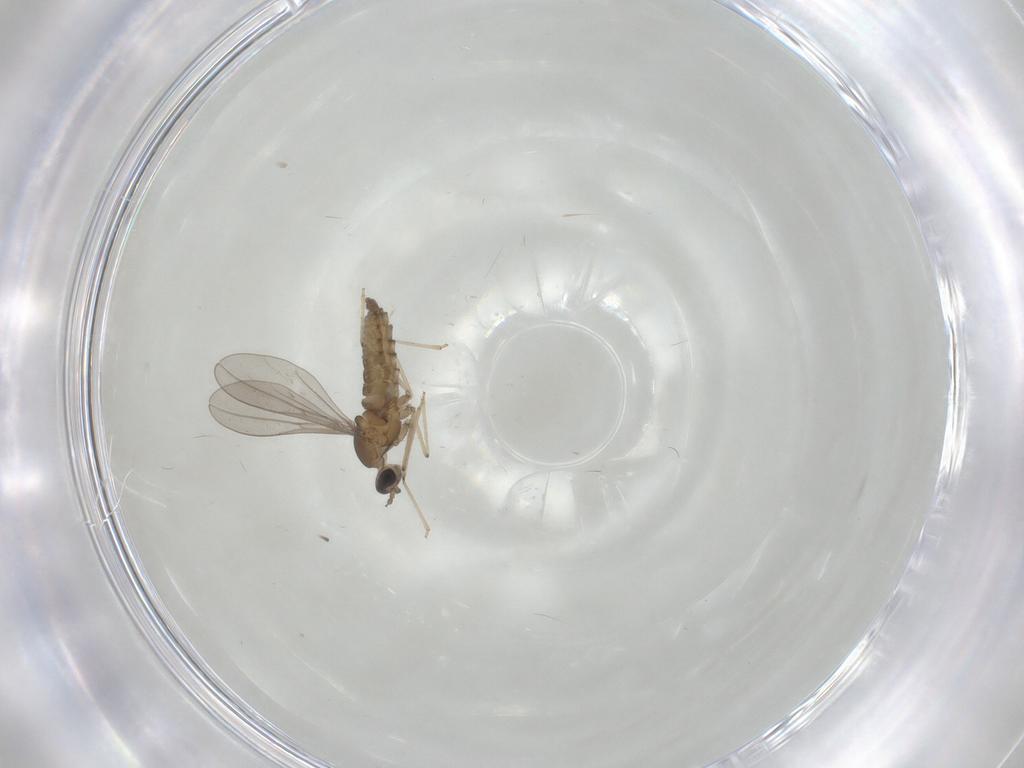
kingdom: Animalia
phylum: Arthropoda
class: Insecta
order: Diptera
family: Cecidomyiidae
